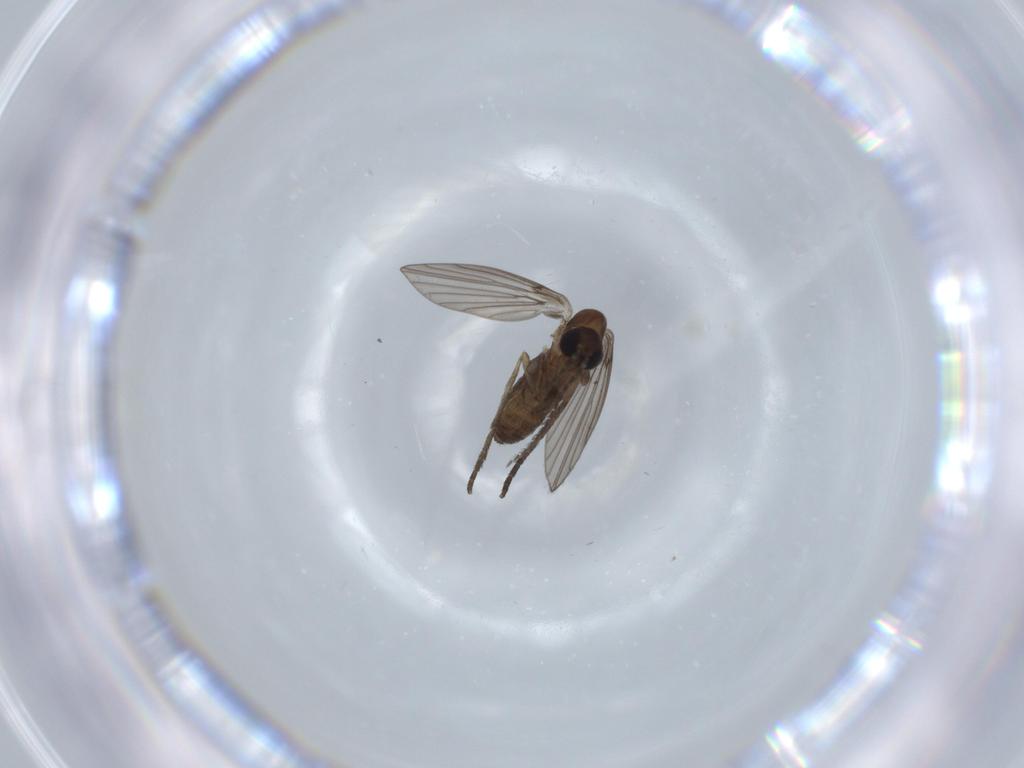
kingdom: Animalia
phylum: Arthropoda
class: Insecta
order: Diptera
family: Psychodidae
